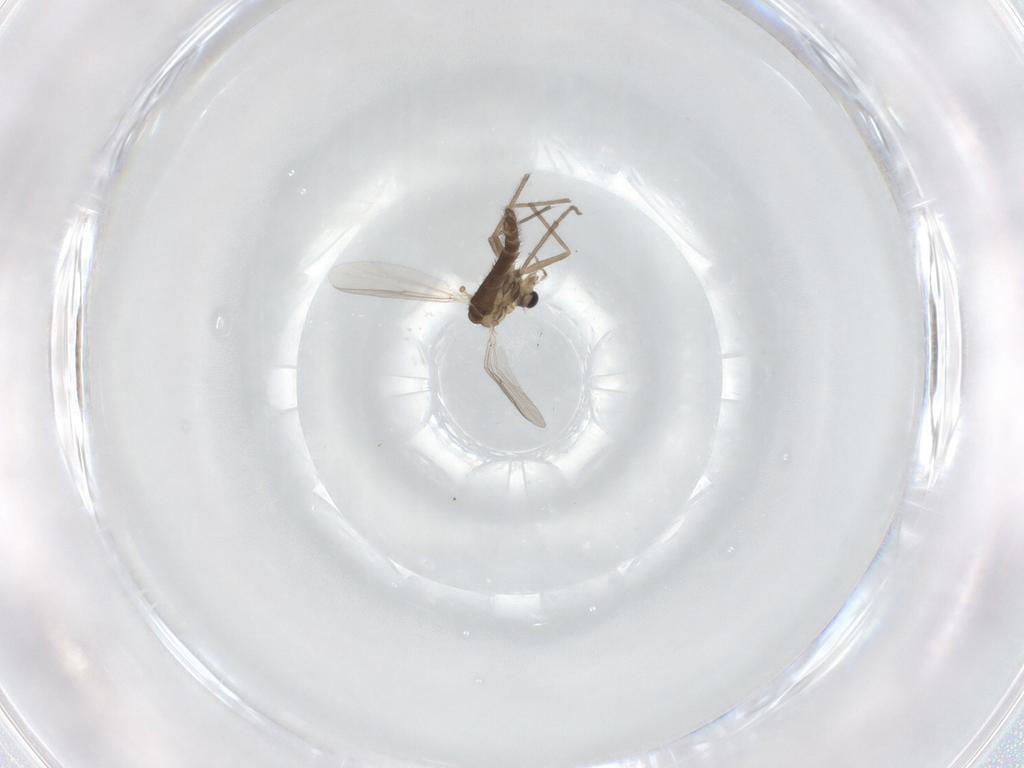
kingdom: Animalia
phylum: Arthropoda
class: Insecta
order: Diptera
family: Chironomidae
